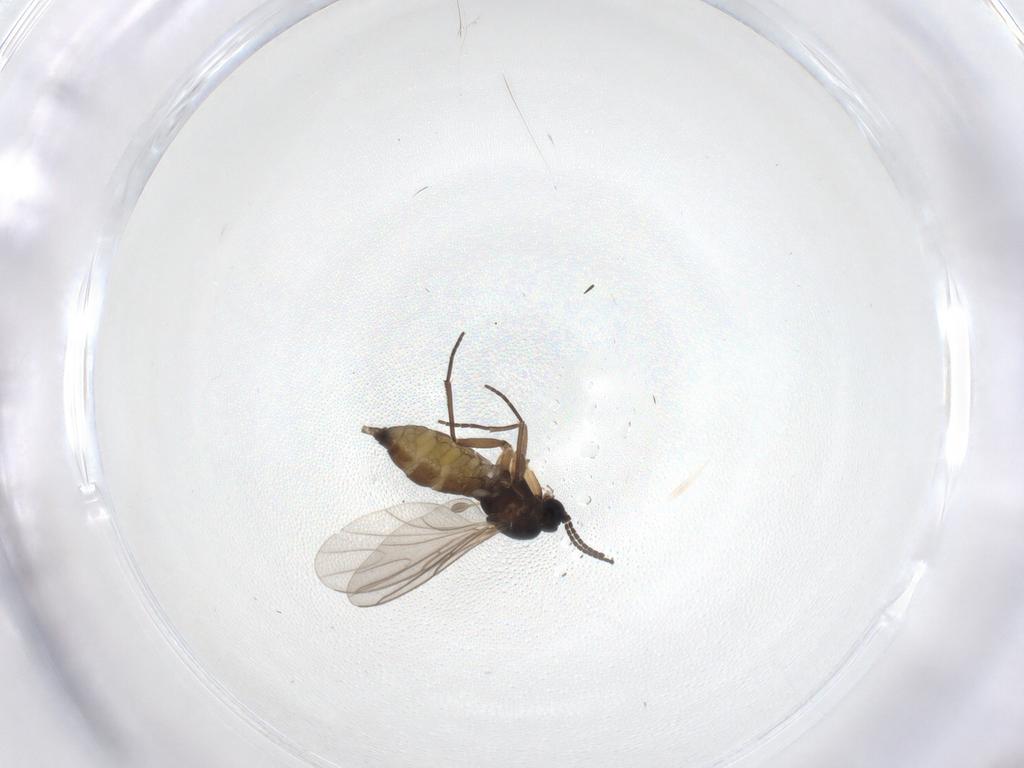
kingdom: Animalia
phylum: Arthropoda
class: Insecta
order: Diptera
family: Sciaridae
